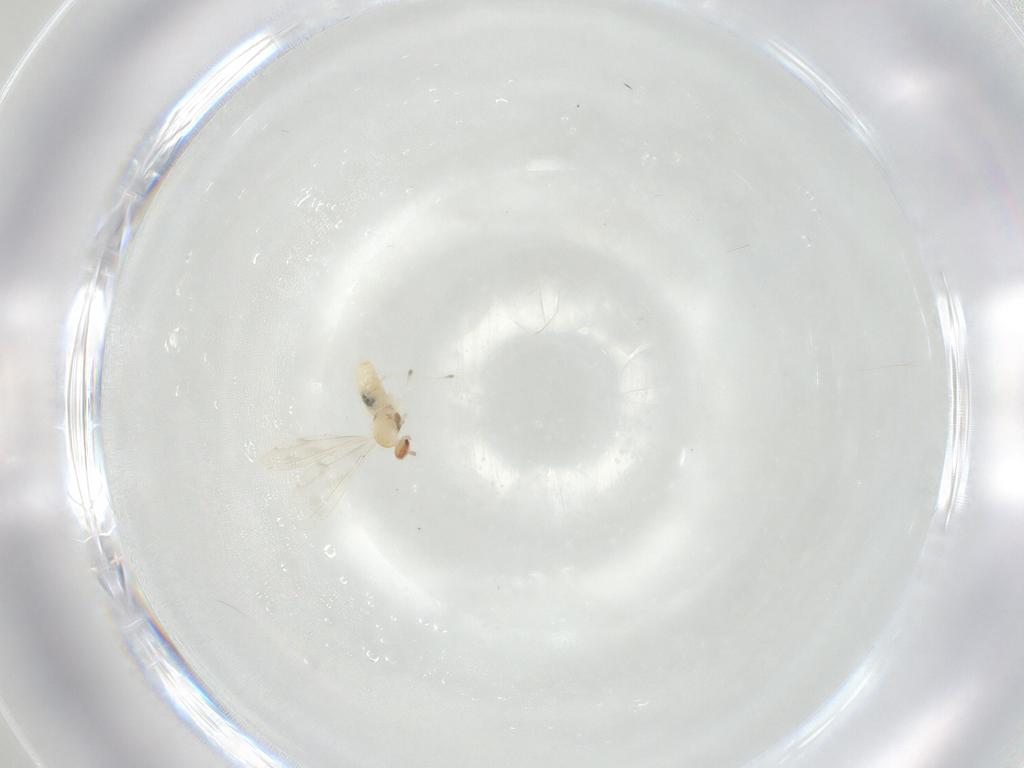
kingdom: Animalia
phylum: Arthropoda
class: Insecta
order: Diptera
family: Cecidomyiidae
